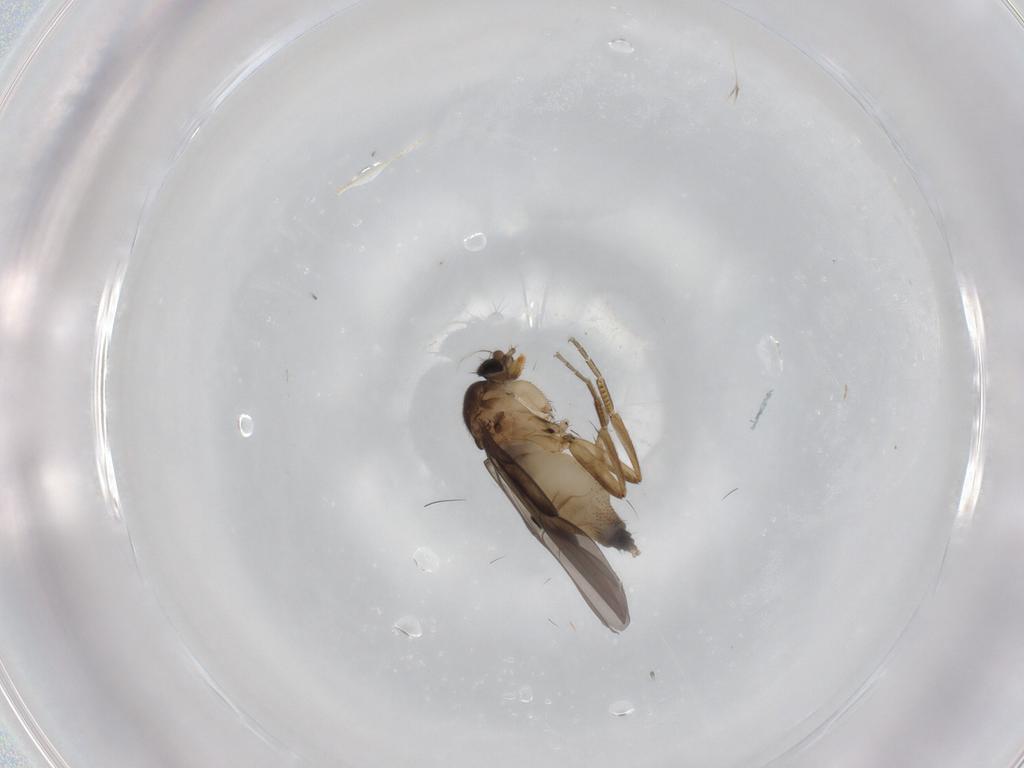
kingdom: Animalia
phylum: Arthropoda
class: Insecta
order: Diptera
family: Phoridae
